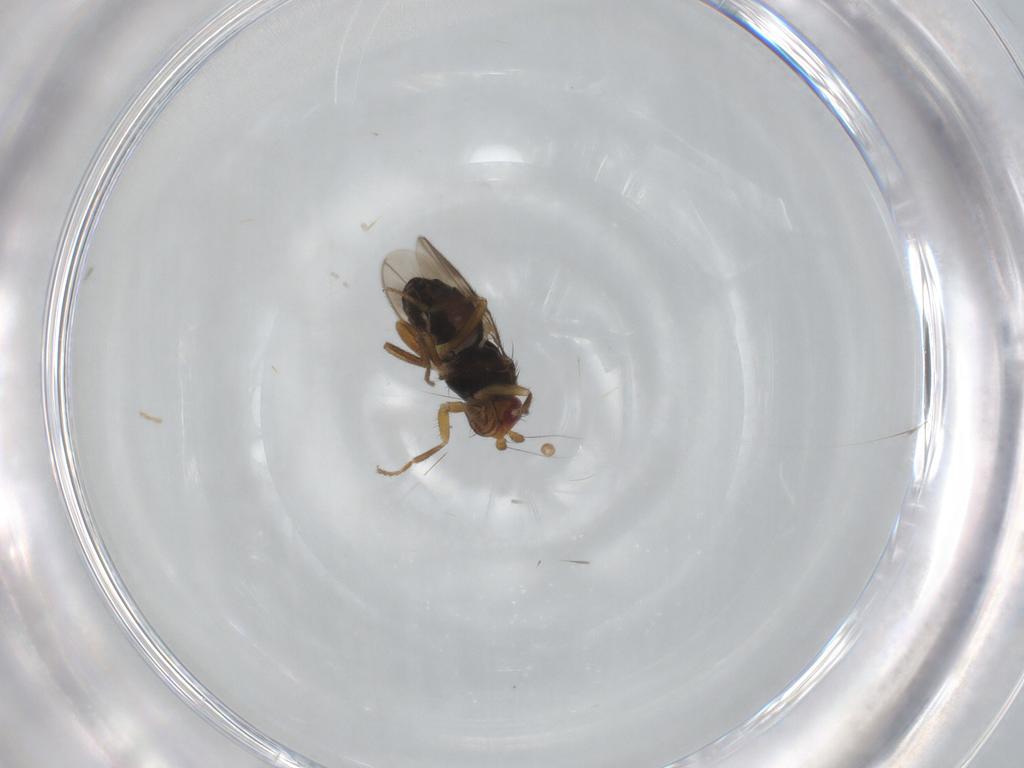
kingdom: Animalia
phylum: Arthropoda
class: Insecta
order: Diptera
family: Sphaeroceridae
